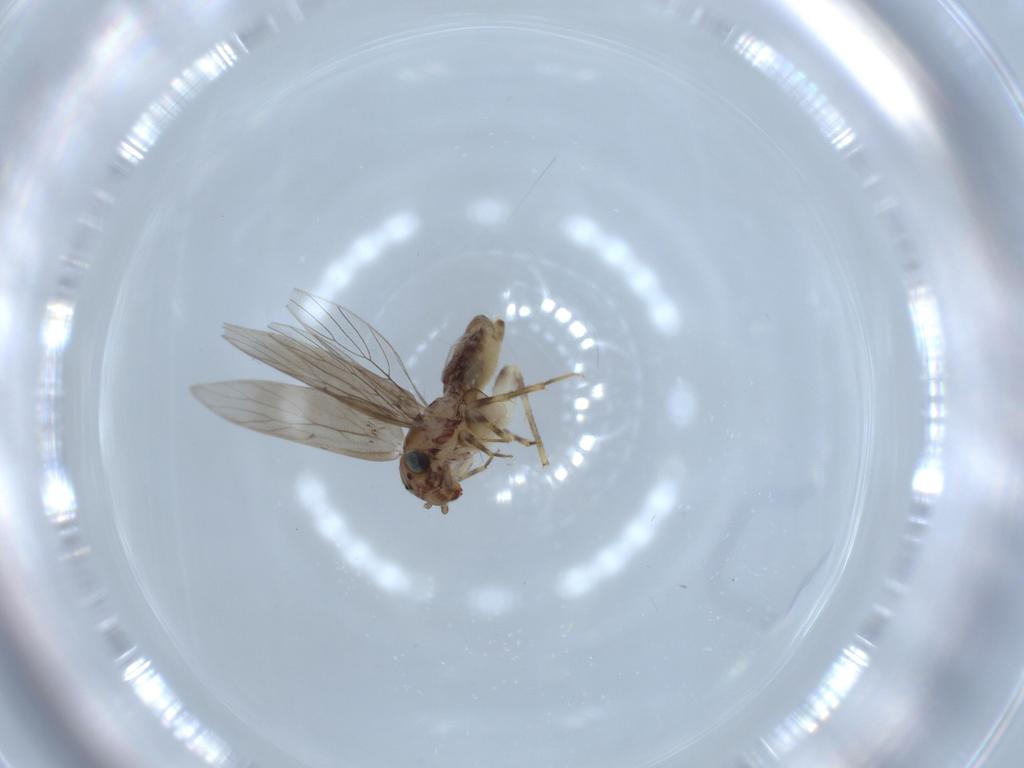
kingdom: Animalia
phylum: Arthropoda
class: Insecta
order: Psocodea
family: Lepidopsocidae
